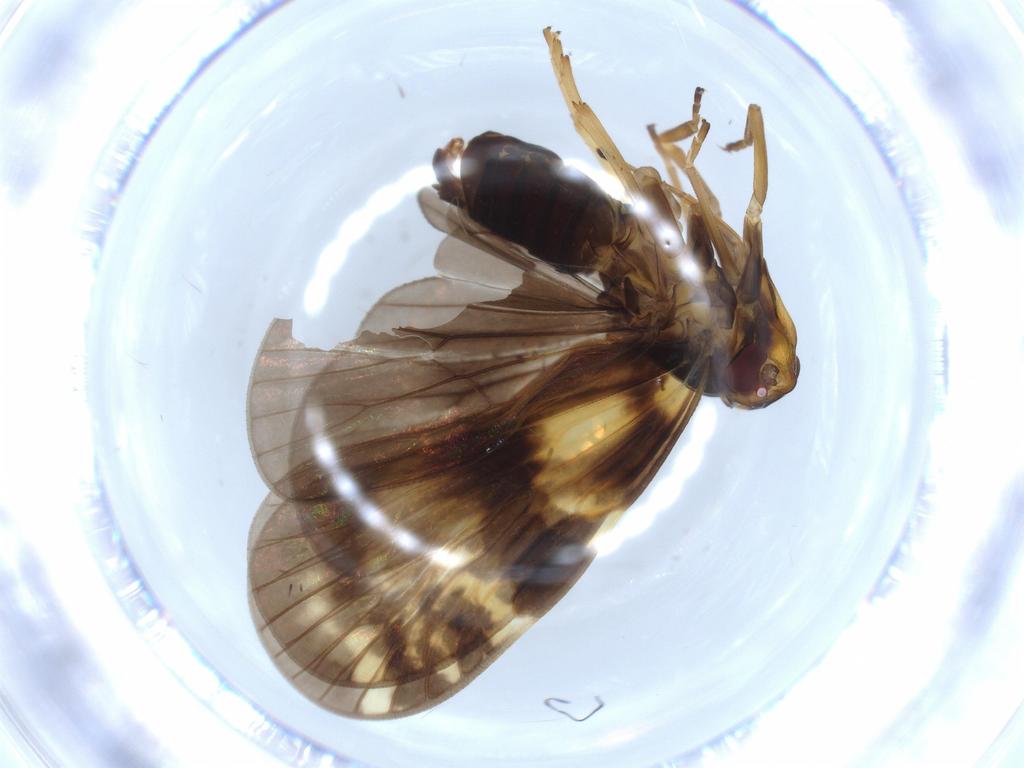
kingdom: Animalia
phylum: Arthropoda
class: Insecta
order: Hemiptera
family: Cixiidae
